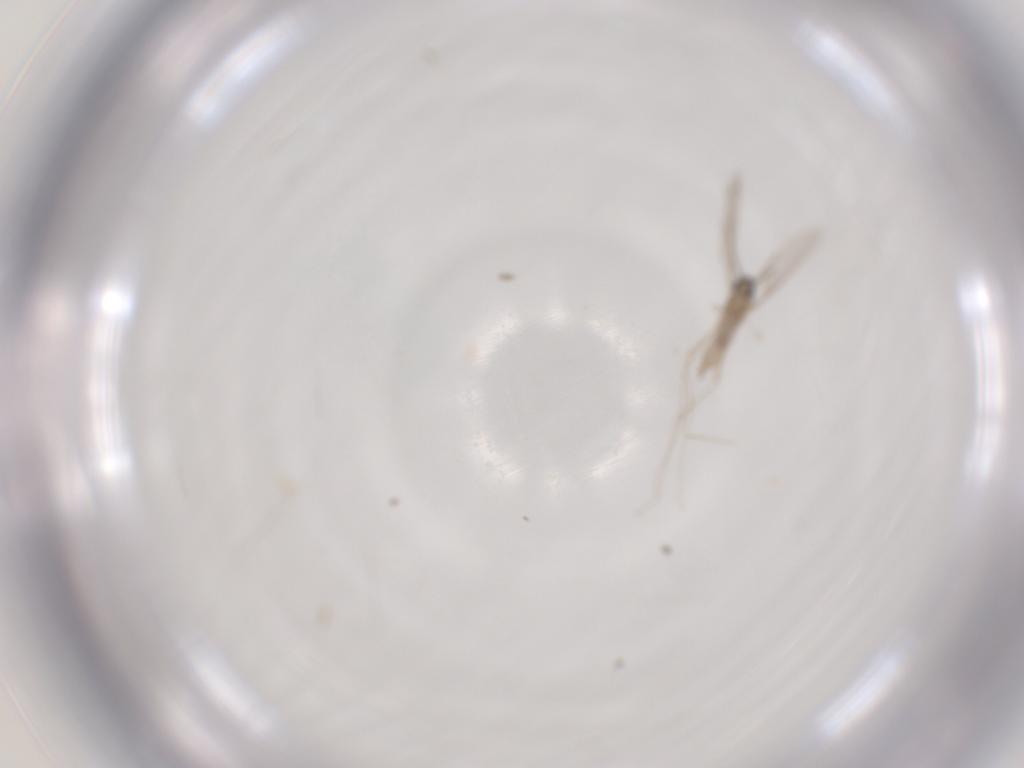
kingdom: Animalia
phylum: Arthropoda
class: Insecta
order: Diptera
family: Cecidomyiidae
